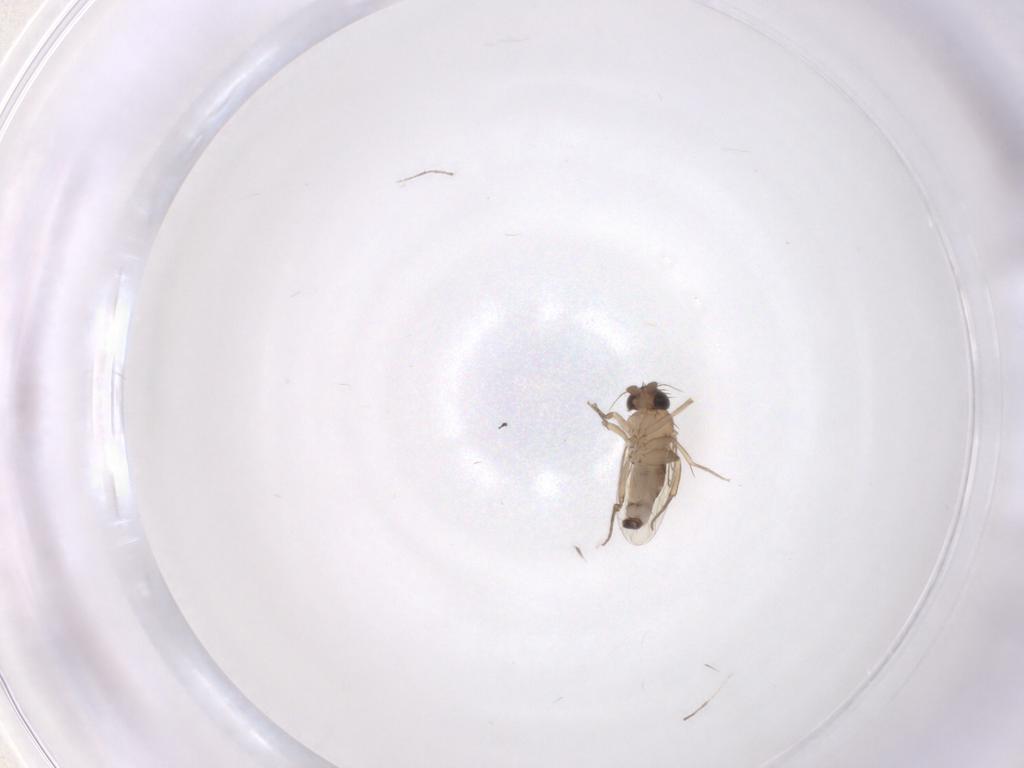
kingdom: Animalia
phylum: Arthropoda
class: Insecta
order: Diptera
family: Phoridae
